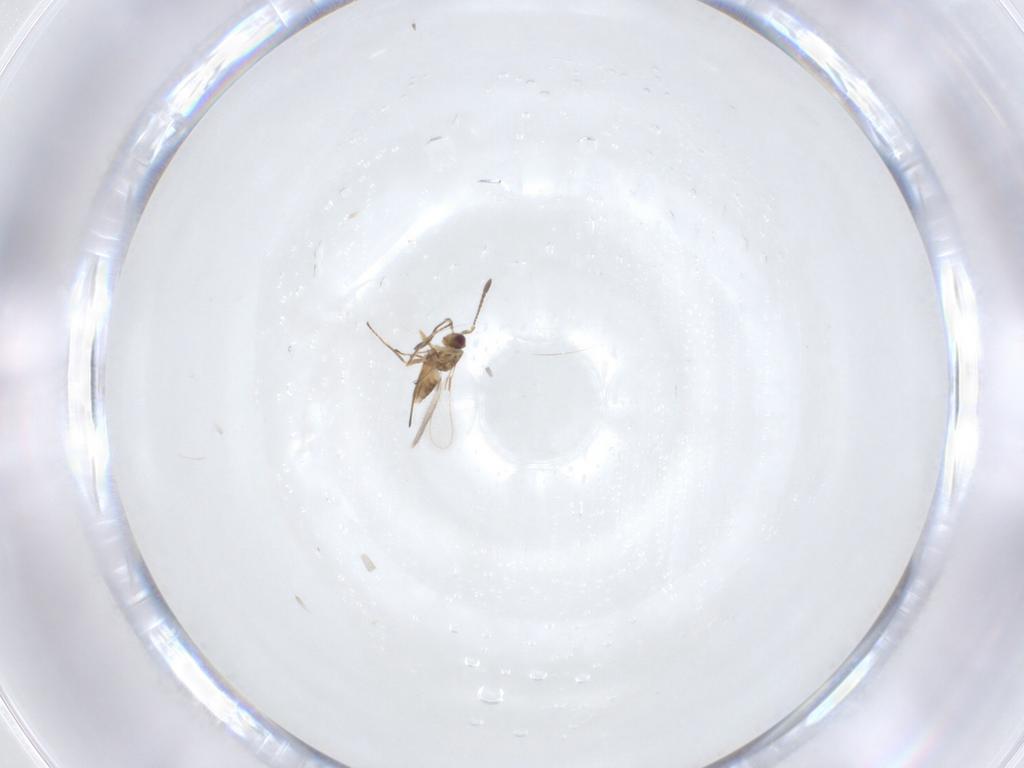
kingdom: Animalia
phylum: Arthropoda
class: Insecta
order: Hymenoptera
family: Mymaridae
